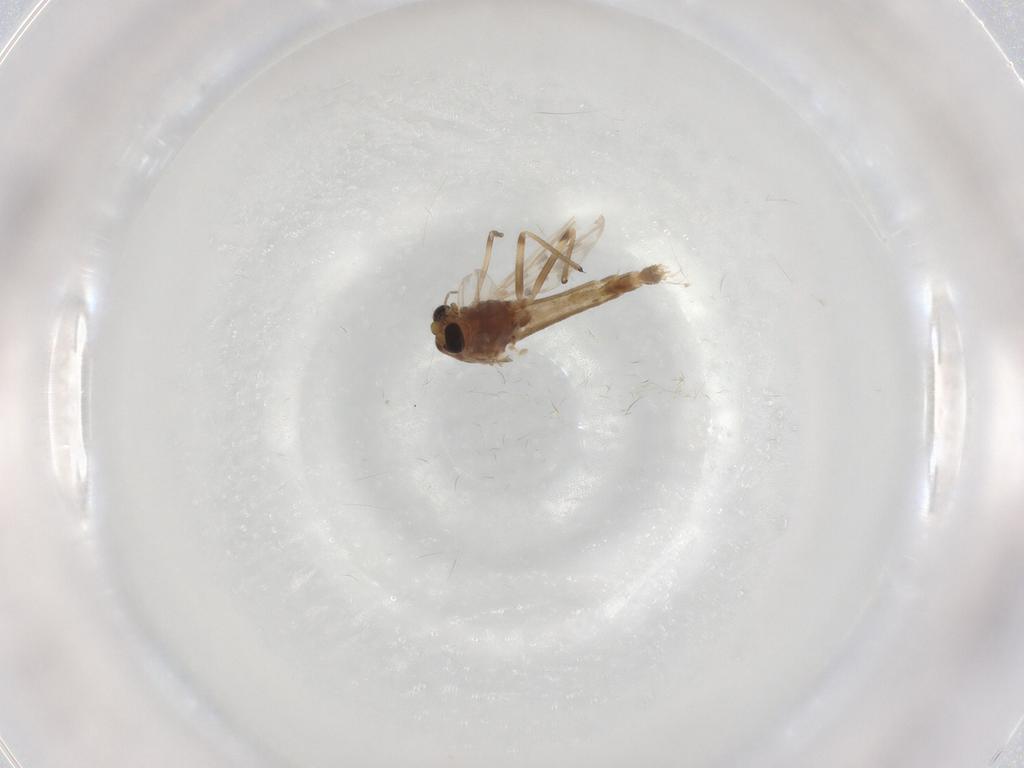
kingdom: Animalia
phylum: Arthropoda
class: Insecta
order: Diptera
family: Chironomidae
